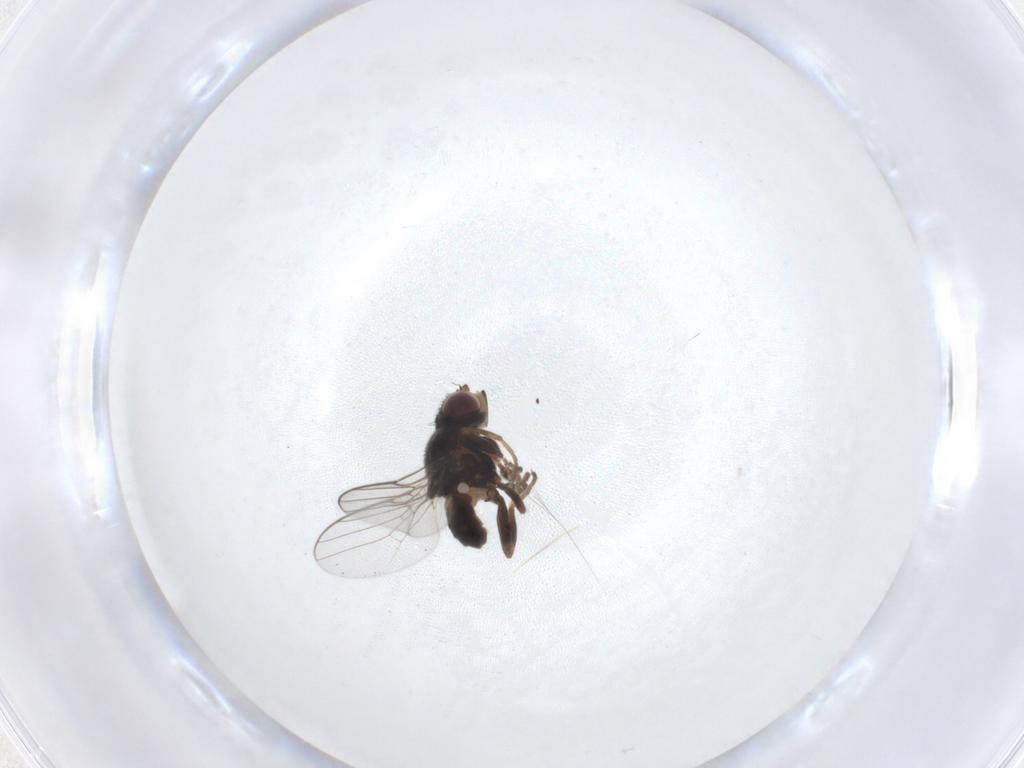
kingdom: Animalia
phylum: Arthropoda
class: Insecta
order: Diptera
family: Chloropidae
